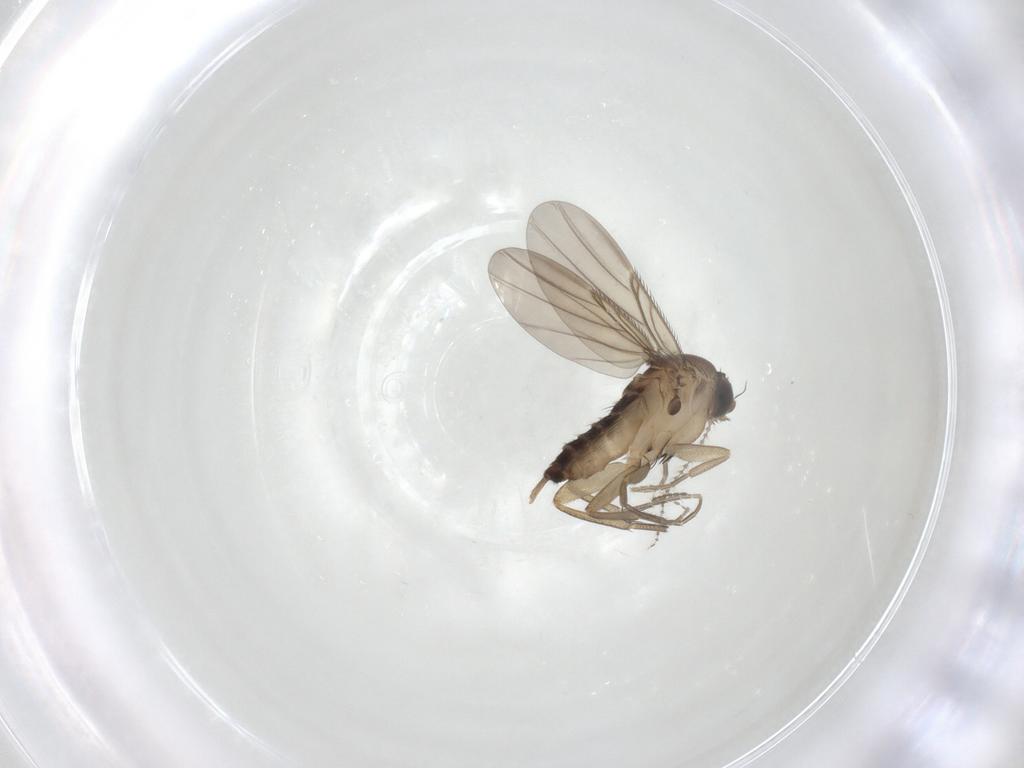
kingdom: Animalia
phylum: Arthropoda
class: Insecta
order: Diptera
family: Phoridae
